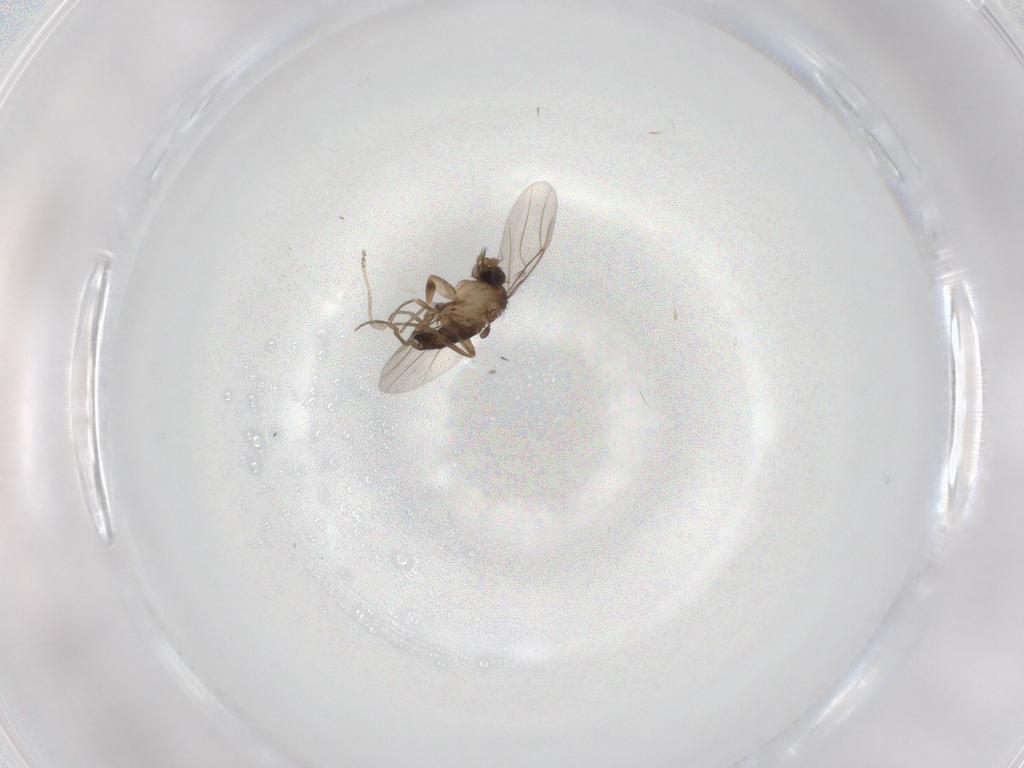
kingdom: Animalia
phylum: Arthropoda
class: Insecta
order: Diptera
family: Phoridae
